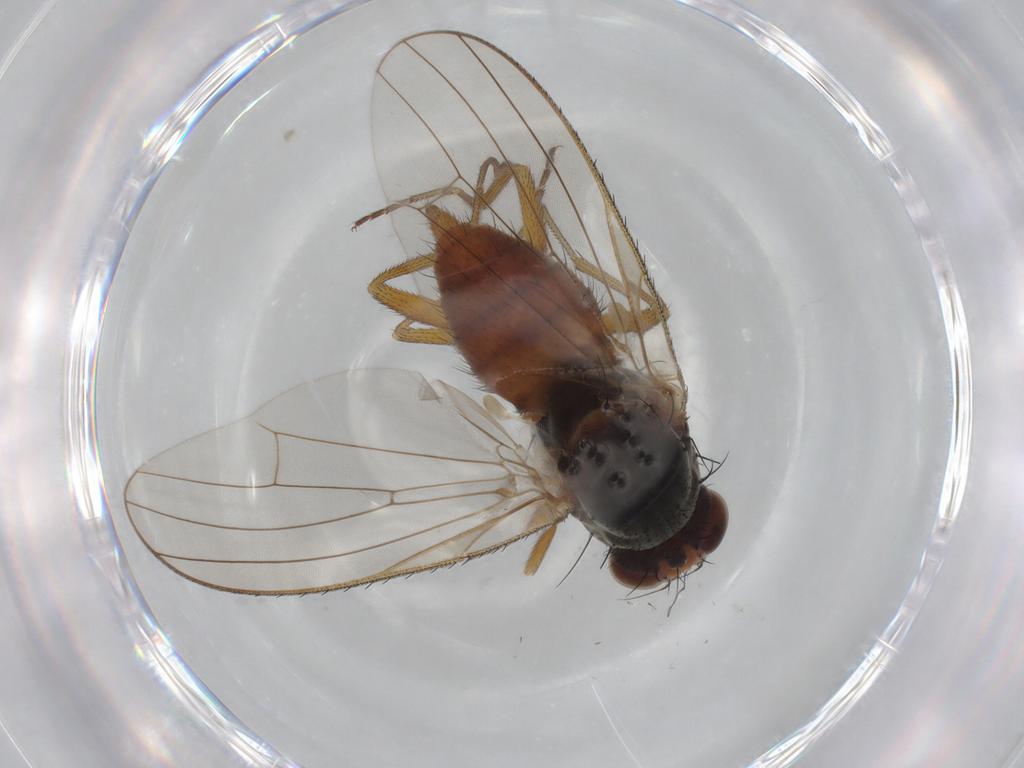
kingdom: Animalia
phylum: Arthropoda
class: Insecta
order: Diptera
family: Heleomyzidae
